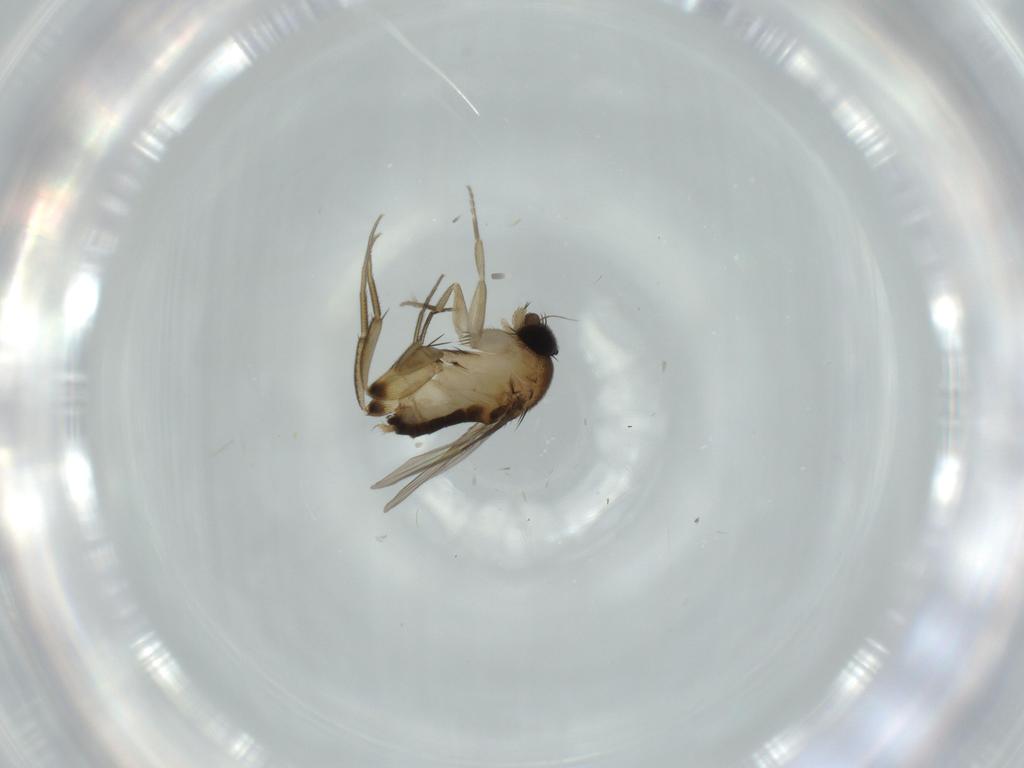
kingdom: Animalia
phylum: Arthropoda
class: Insecta
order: Diptera
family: Phoridae
